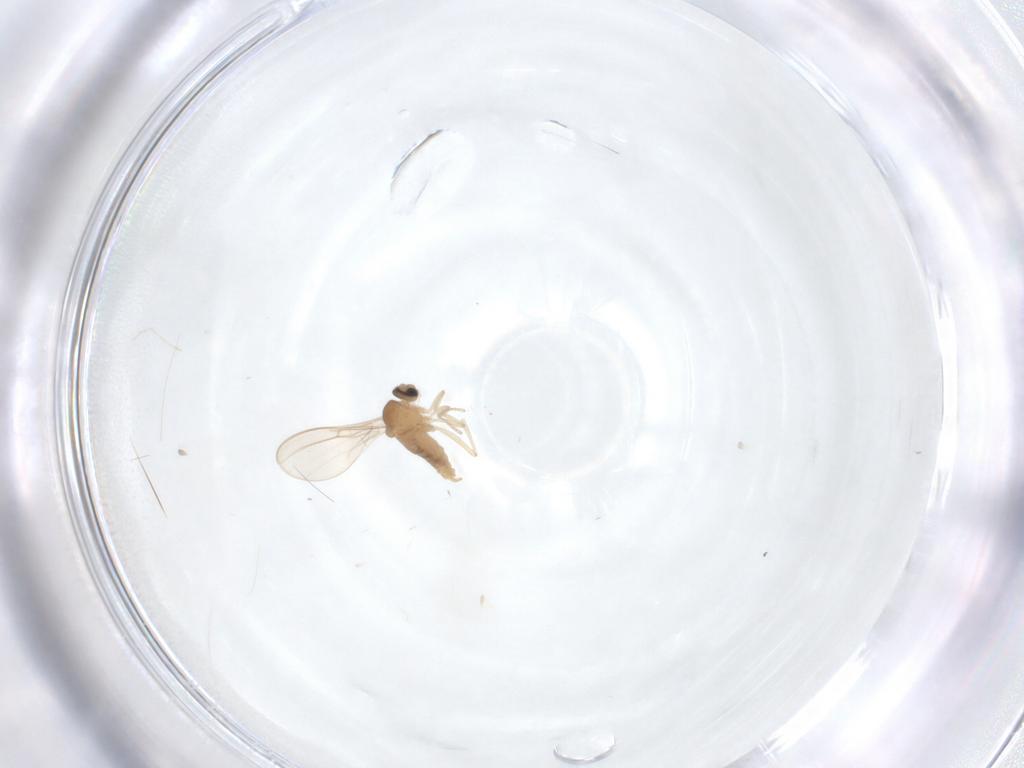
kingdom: Animalia
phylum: Arthropoda
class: Insecta
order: Diptera
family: Cecidomyiidae
